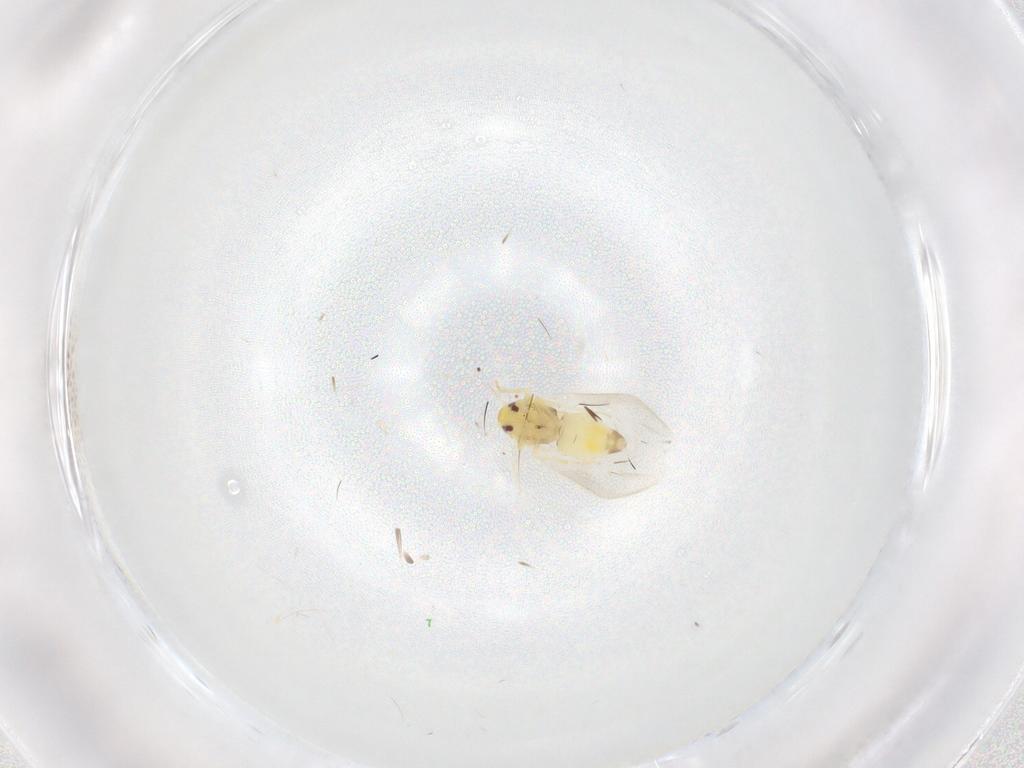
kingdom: Animalia
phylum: Arthropoda
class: Insecta
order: Hemiptera
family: Aleyrodidae
